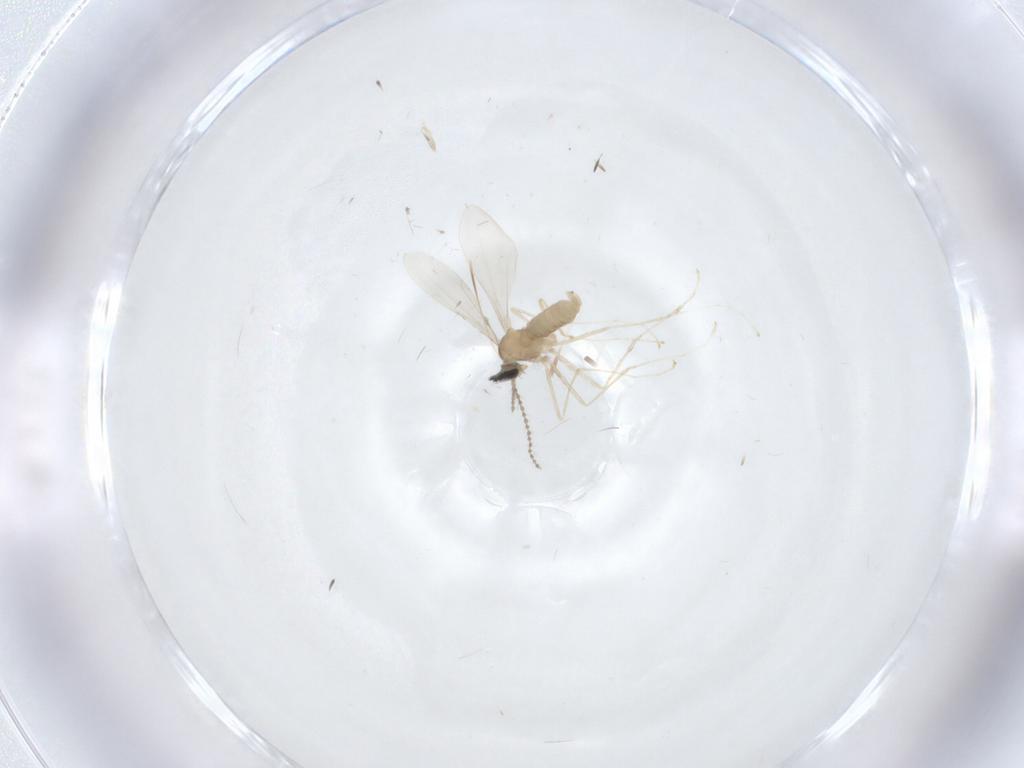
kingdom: Animalia
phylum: Arthropoda
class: Insecta
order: Diptera
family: Cecidomyiidae
